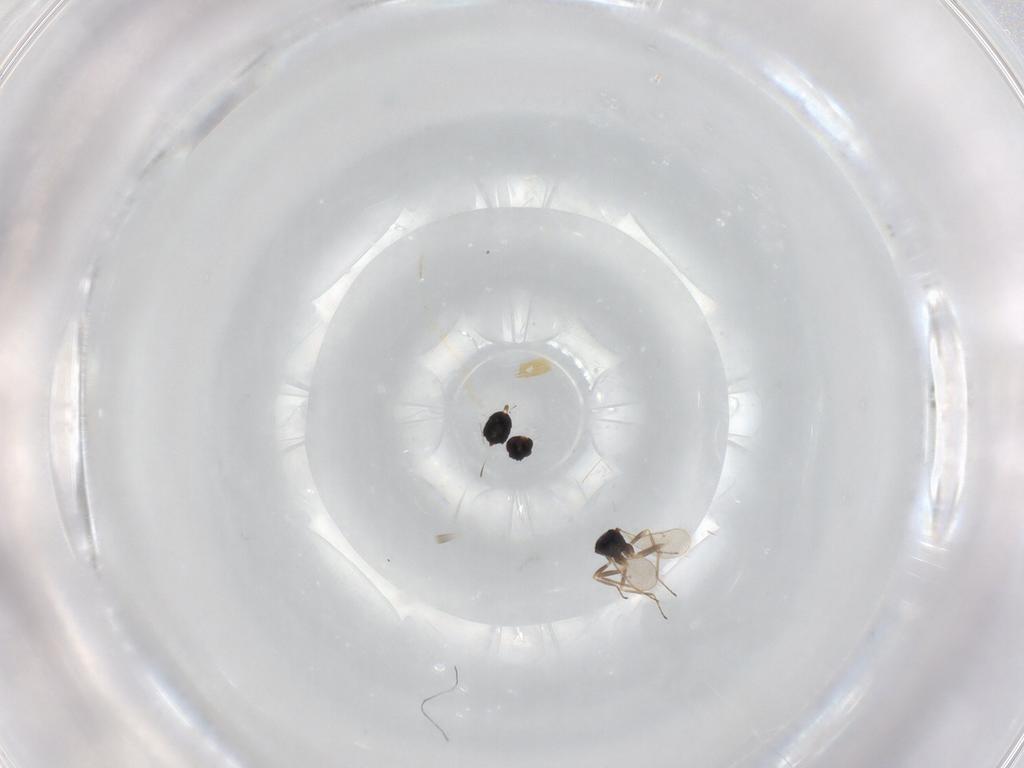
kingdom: Animalia
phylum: Arthropoda
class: Insecta
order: Hymenoptera
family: Tetracampidae
